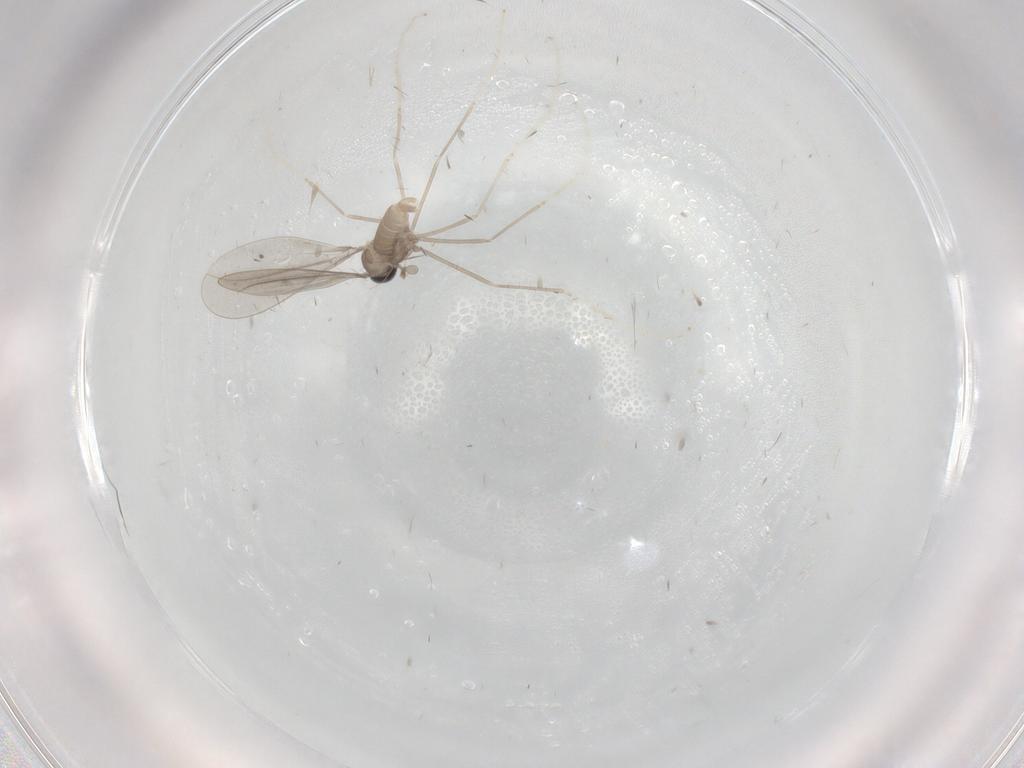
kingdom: Animalia
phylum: Arthropoda
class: Insecta
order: Diptera
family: Cecidomyiidae
